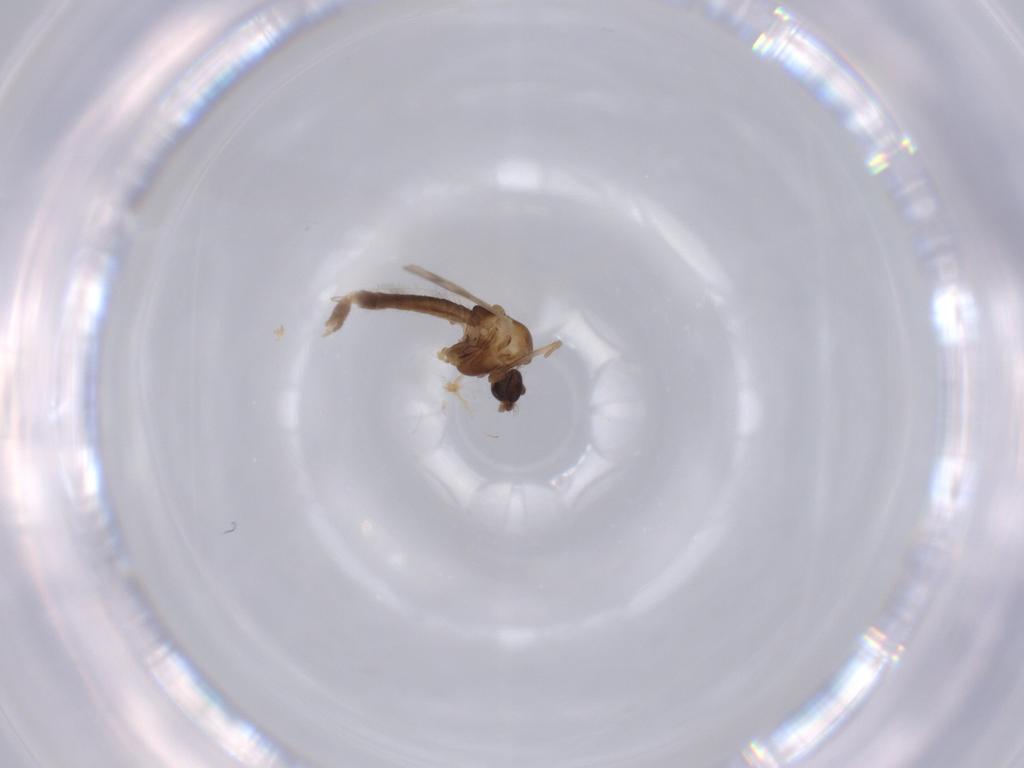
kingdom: Animalia
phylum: Arthropoda
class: Insecta
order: Diptera
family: Chironomidae
